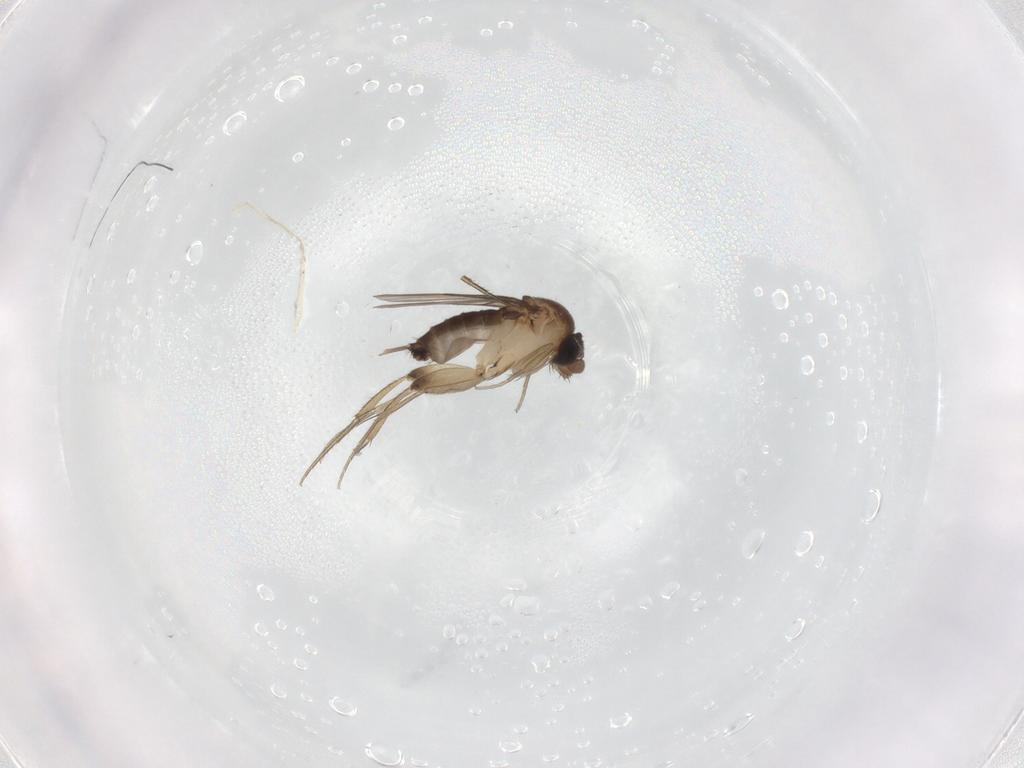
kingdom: Animalia
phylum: Arthropoda
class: Insecta
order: Diptera
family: Phoridae
